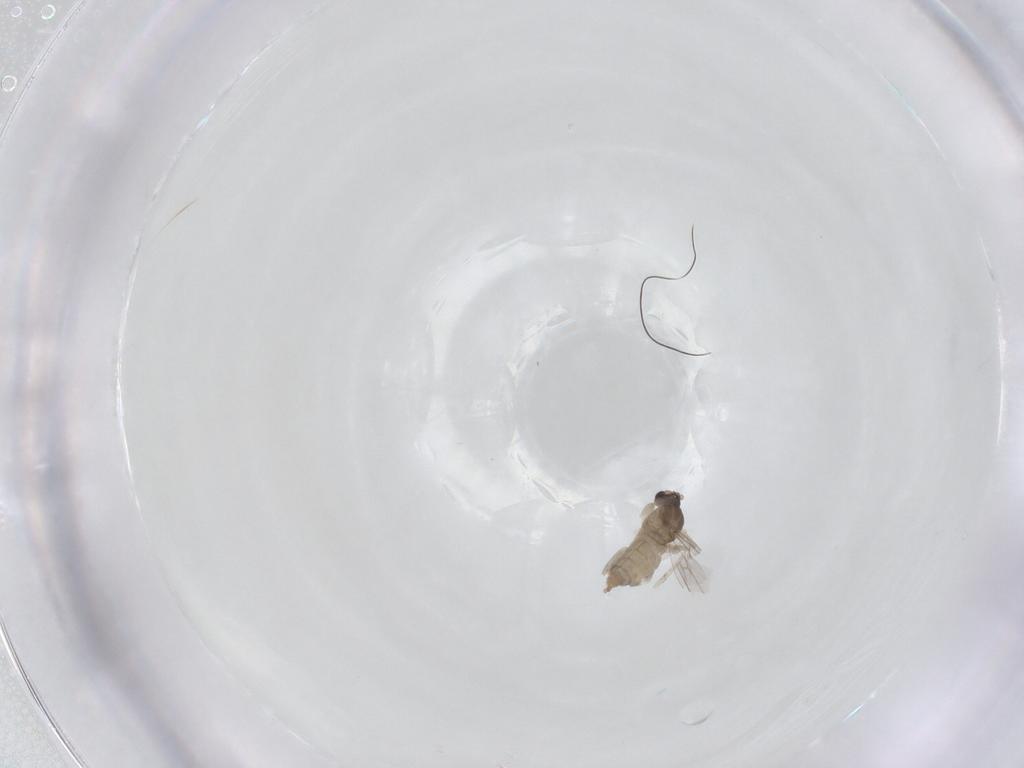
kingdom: Animalia
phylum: Arthropoda
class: Insecta
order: Diptera
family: Cecidomyiidae
